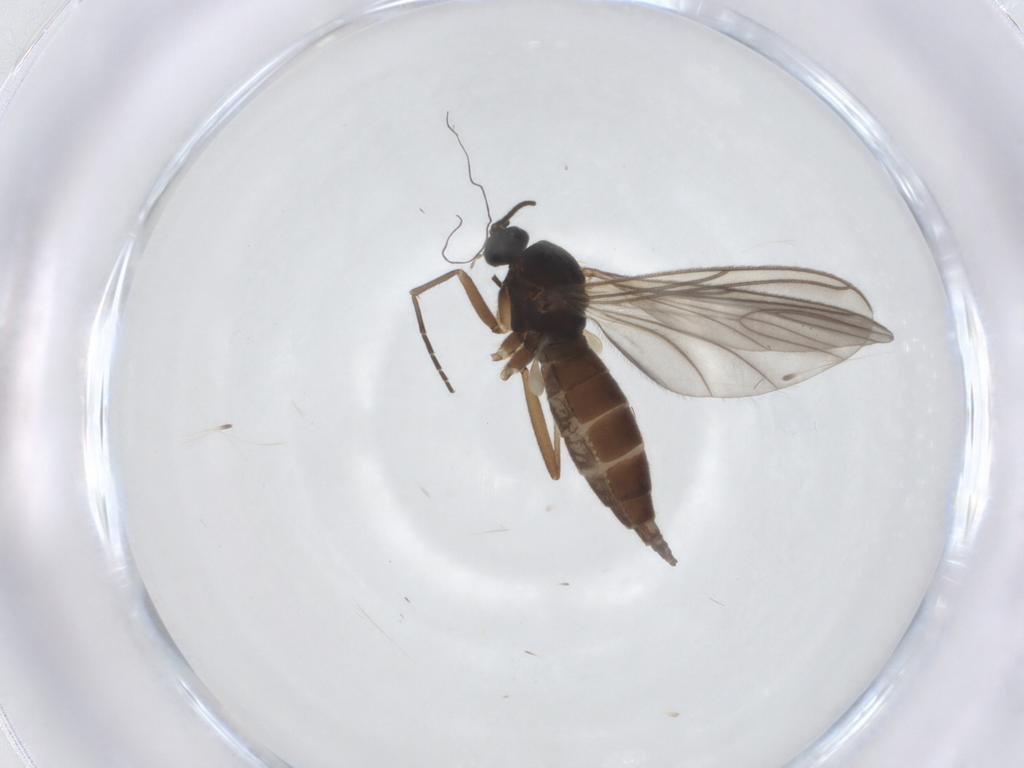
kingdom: Animalia
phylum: Arthropoda
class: Insecta
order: Diptera
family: Sciaridae
